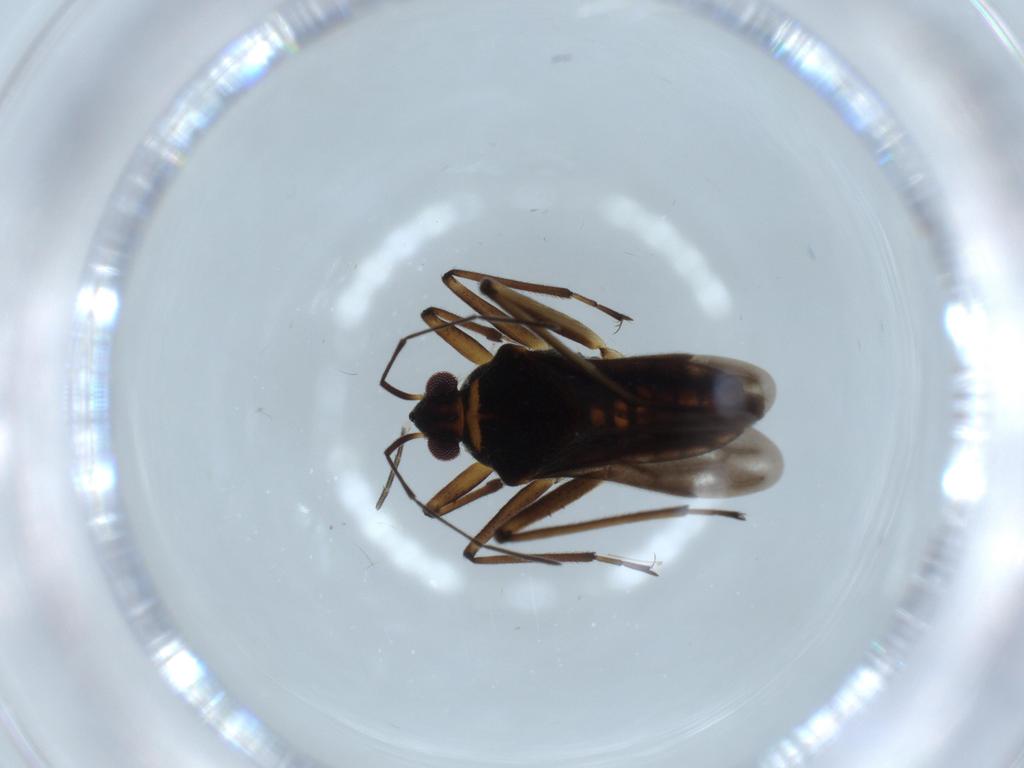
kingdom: Animalia
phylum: Arthropoda
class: Insecta
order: Hemiptera
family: Veliidae
